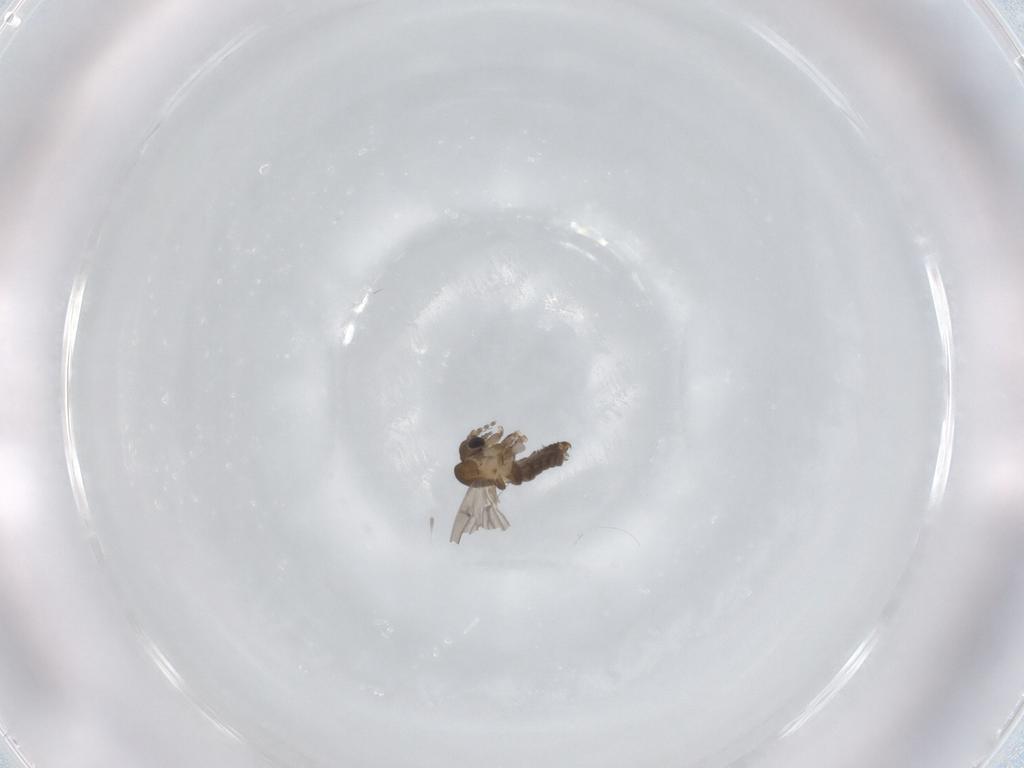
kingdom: Animalia
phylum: Arthropoda
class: Insecta
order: Diptera
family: Psychodidae
